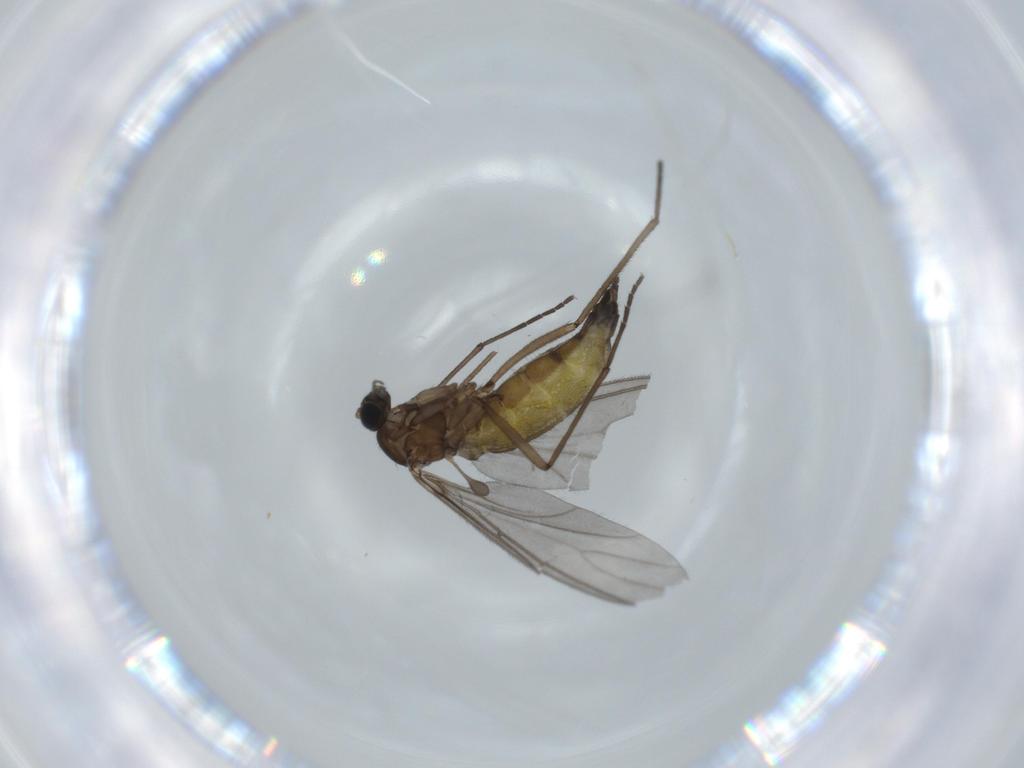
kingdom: Animalia
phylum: Arthropoda
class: Insecta
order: Diptera
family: Sciaridae
